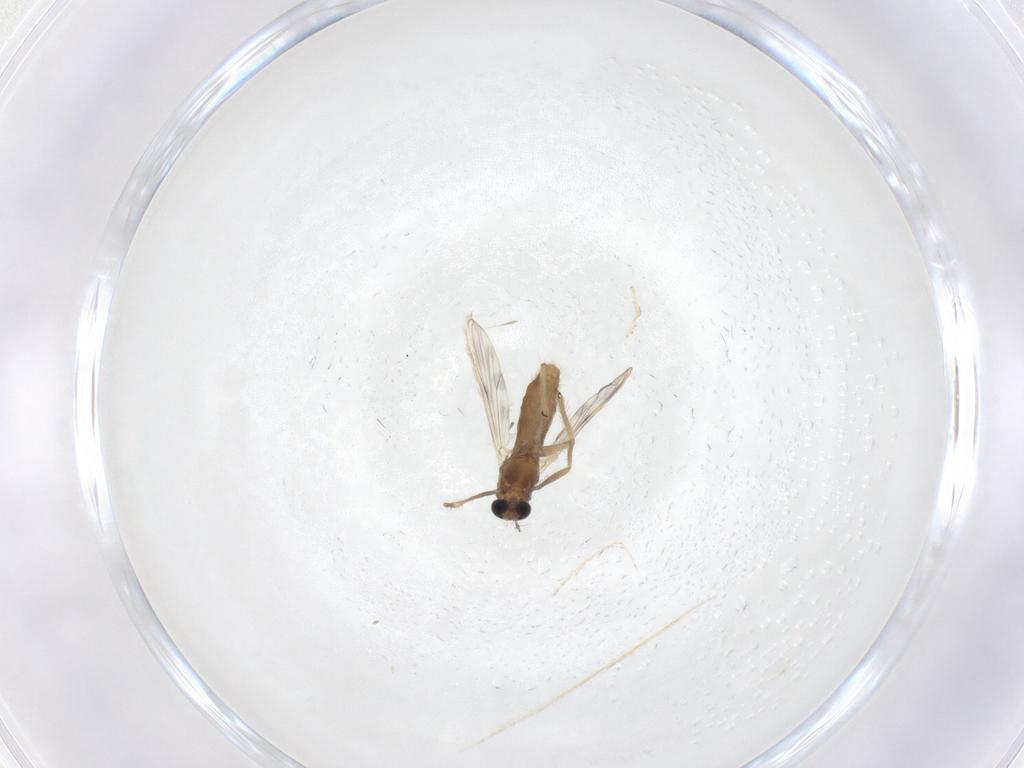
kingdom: Animalia
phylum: Arthropoda
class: Insecta
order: Diptera
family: Chironomidae
